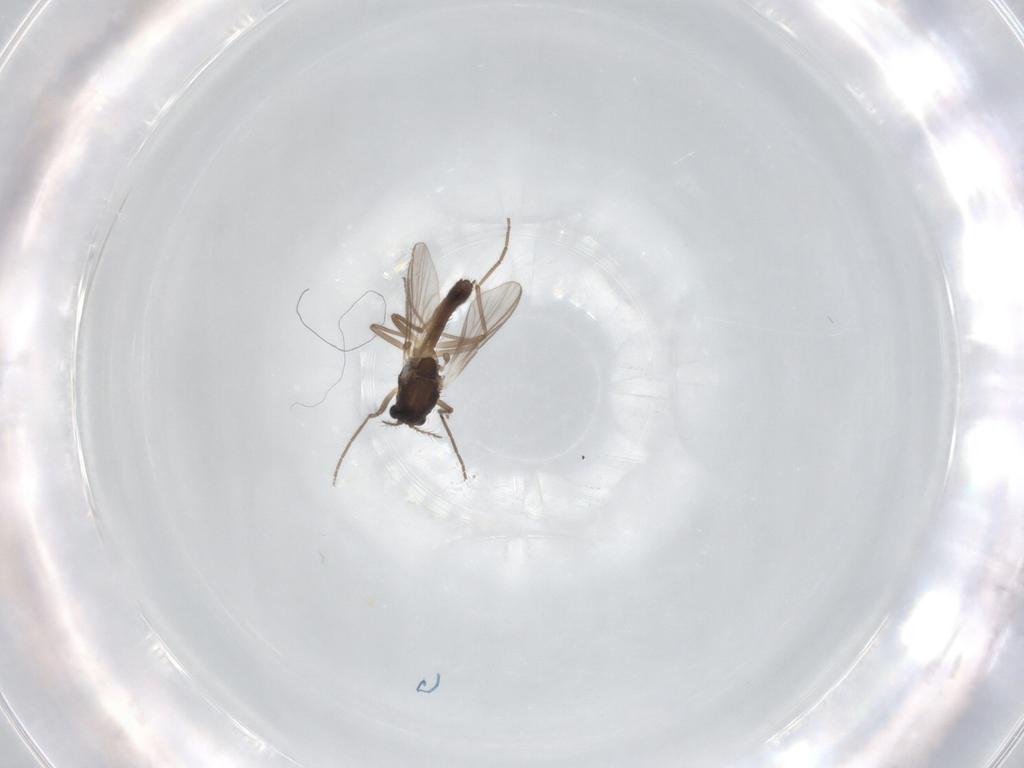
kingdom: Animalia
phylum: Arthropoda
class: Insecta
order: Diptera
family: Chironomidae
